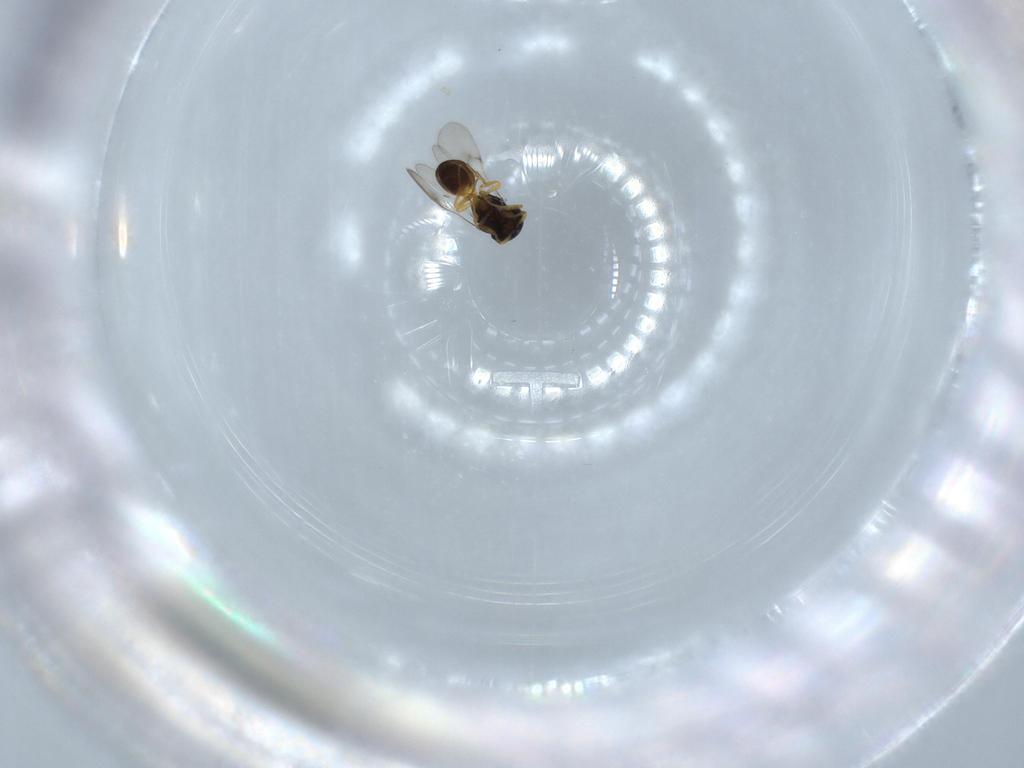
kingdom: Animalia
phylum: Arthropoda
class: Insecta
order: Hymenoptera
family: Scelionidae
